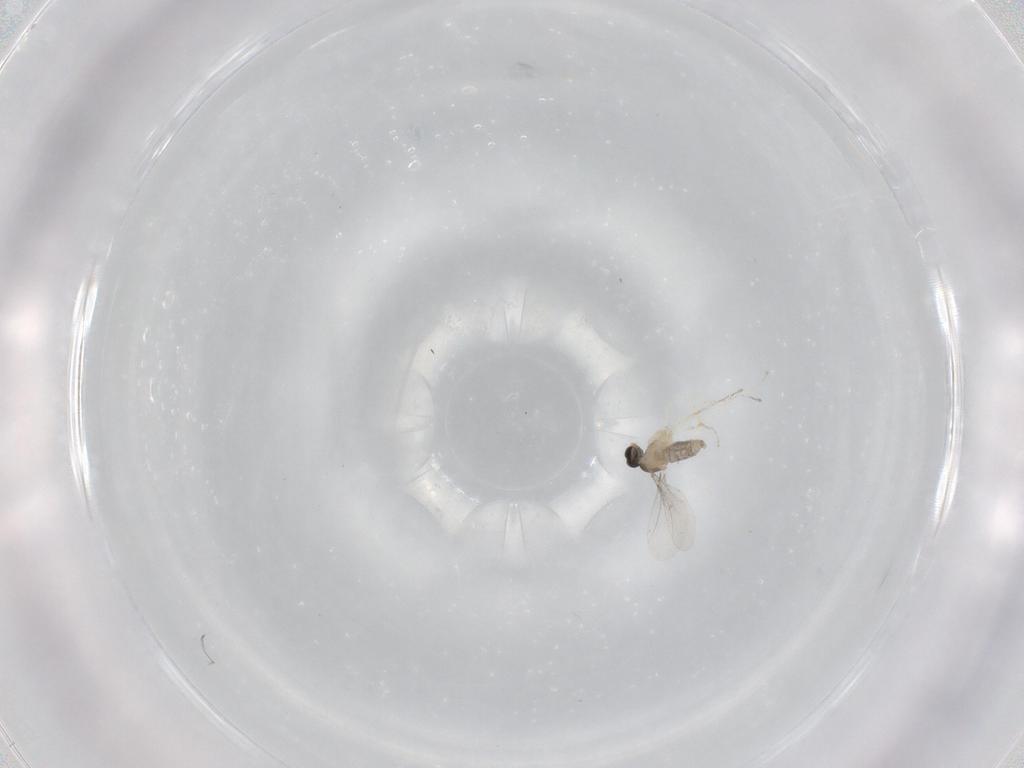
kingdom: Animalia
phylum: Arthropoda
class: Insecta
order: Diptera
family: Cecidomyiidae
